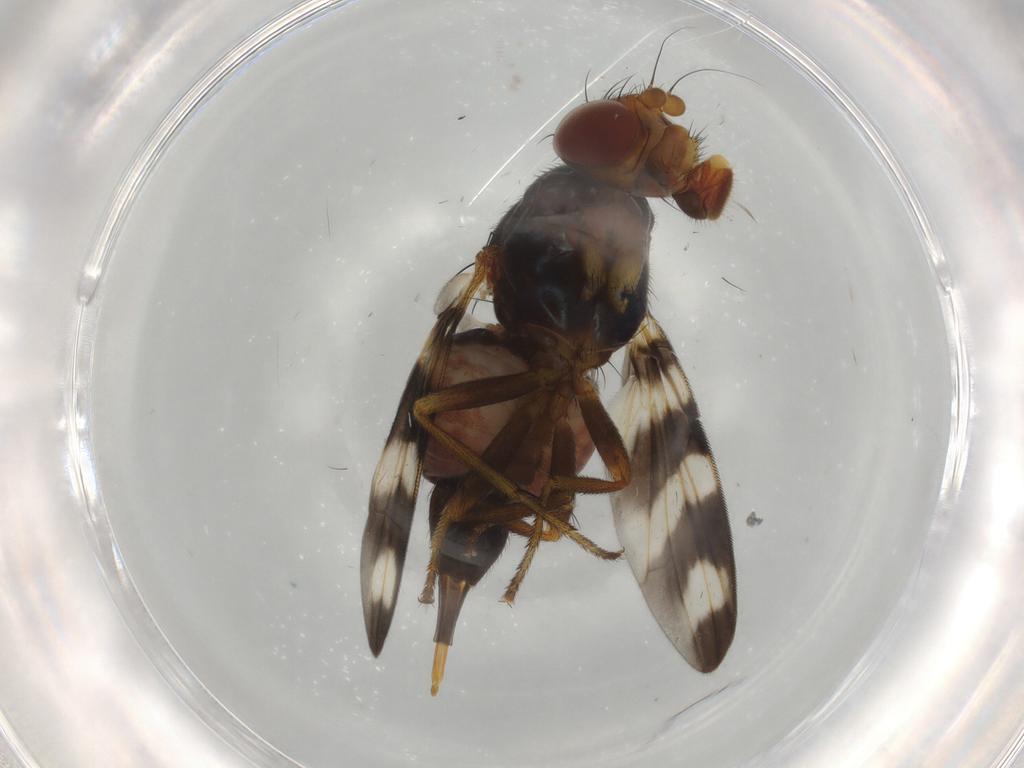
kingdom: Animalia
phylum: Arthropoda
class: Insecta
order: Diptera
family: Ulidiidae
